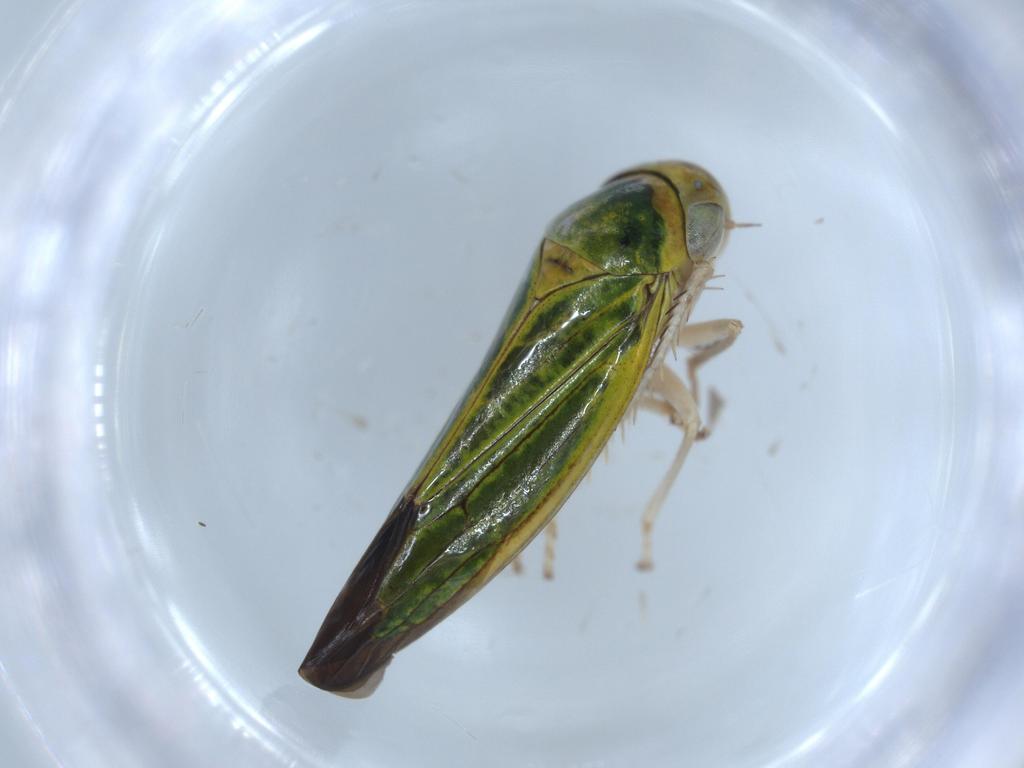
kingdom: Animalia
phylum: Arthropoda
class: Insecta
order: Hemiptera
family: Cicadellidae
